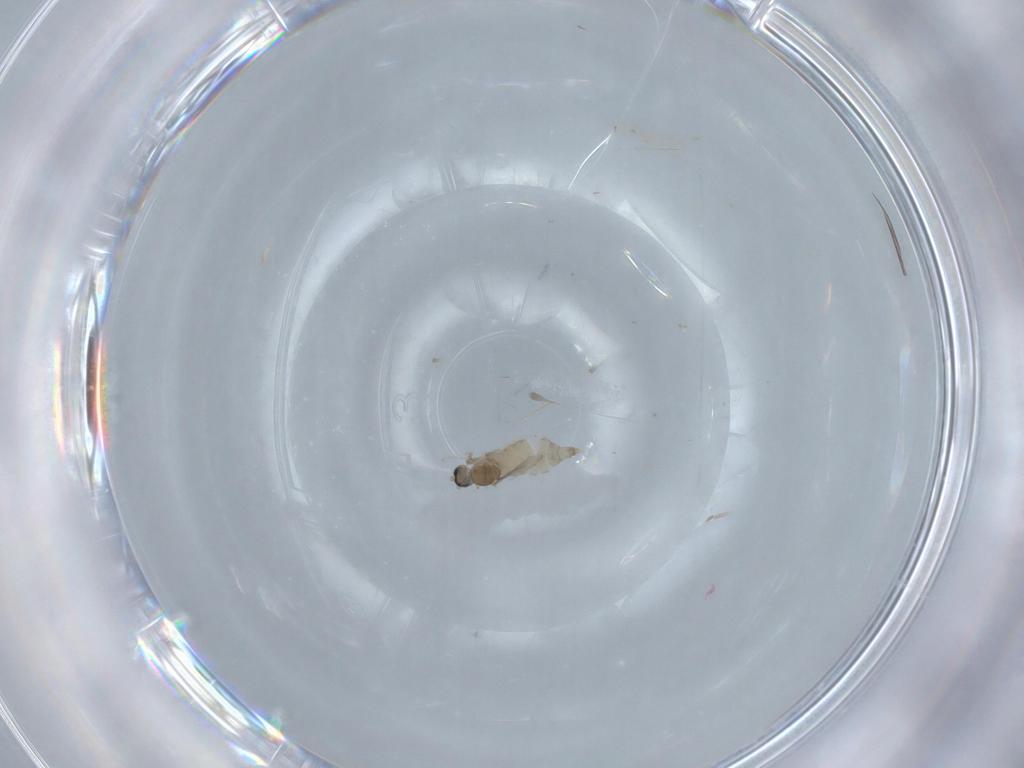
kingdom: Animalia
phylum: Arthropoda
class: Insecta
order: Diptera
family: Cecidomyiidae
